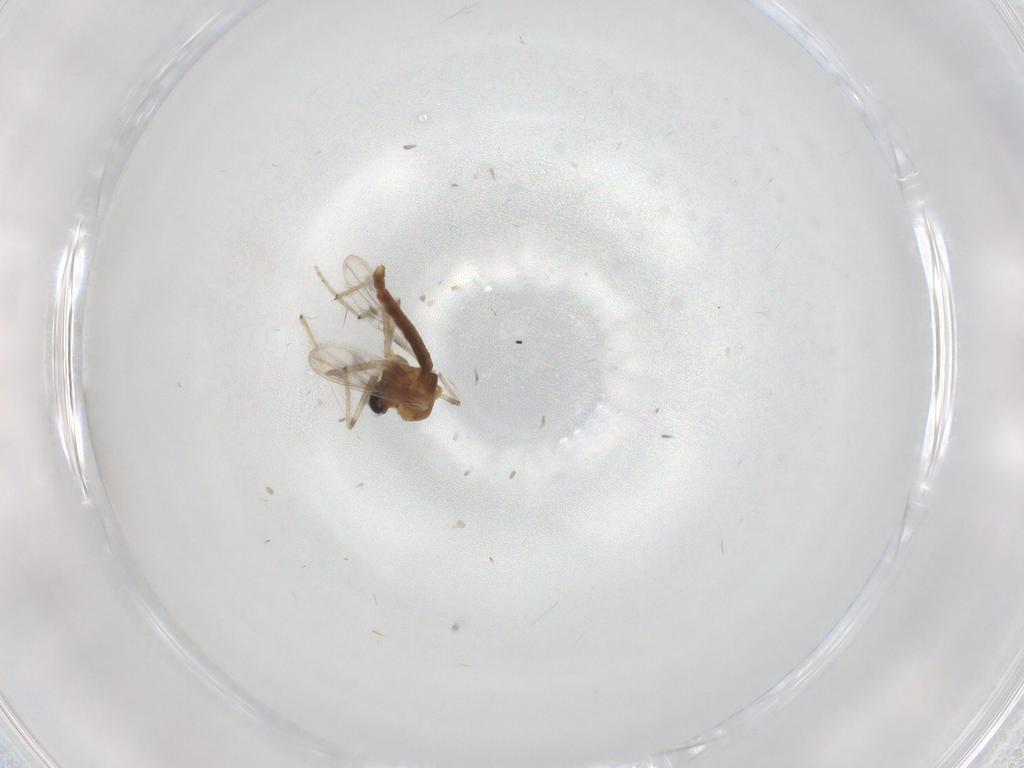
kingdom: Animalia
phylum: Arthropoda
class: Insecta
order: Diptera
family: Chironomidae
